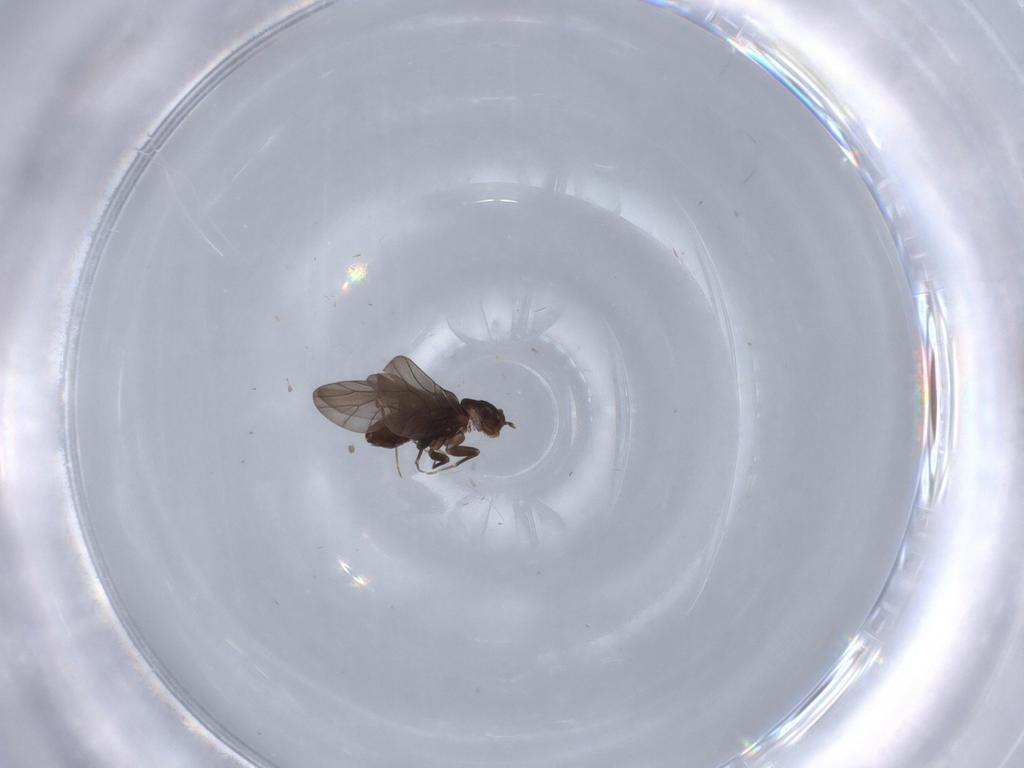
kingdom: Animalia
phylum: Arthropoda
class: Insecta
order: Psocodea
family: Lepidopsocidae
